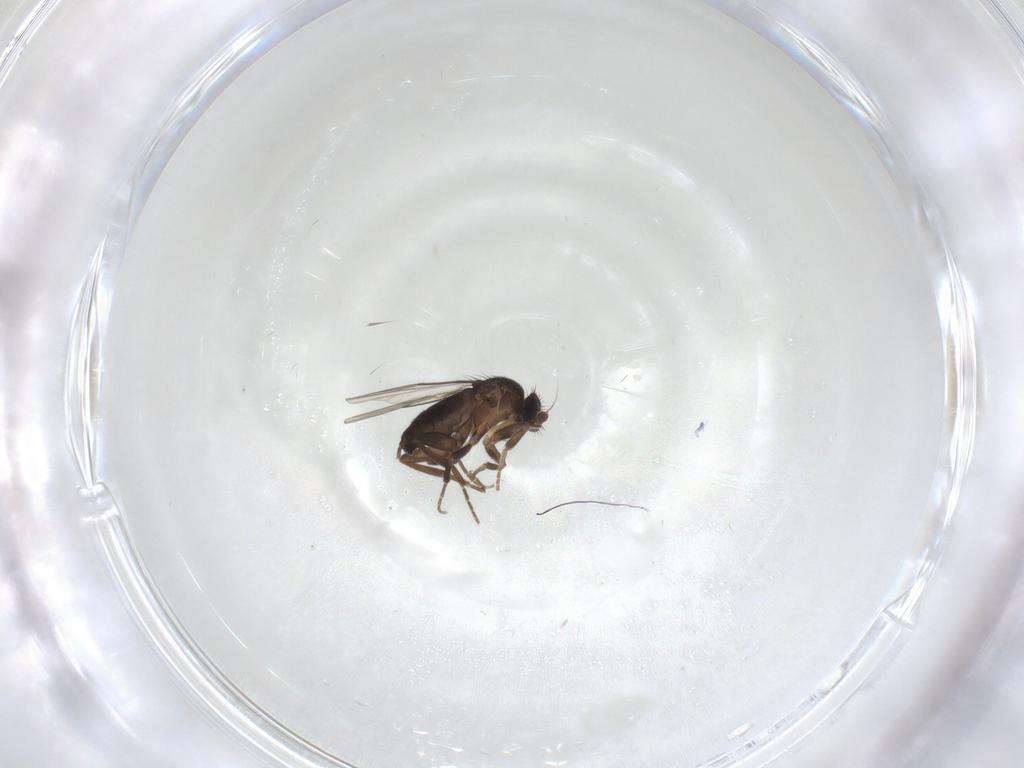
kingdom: Animalia
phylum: Arthropoda
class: Insecta
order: Diptera
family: Phoridae
